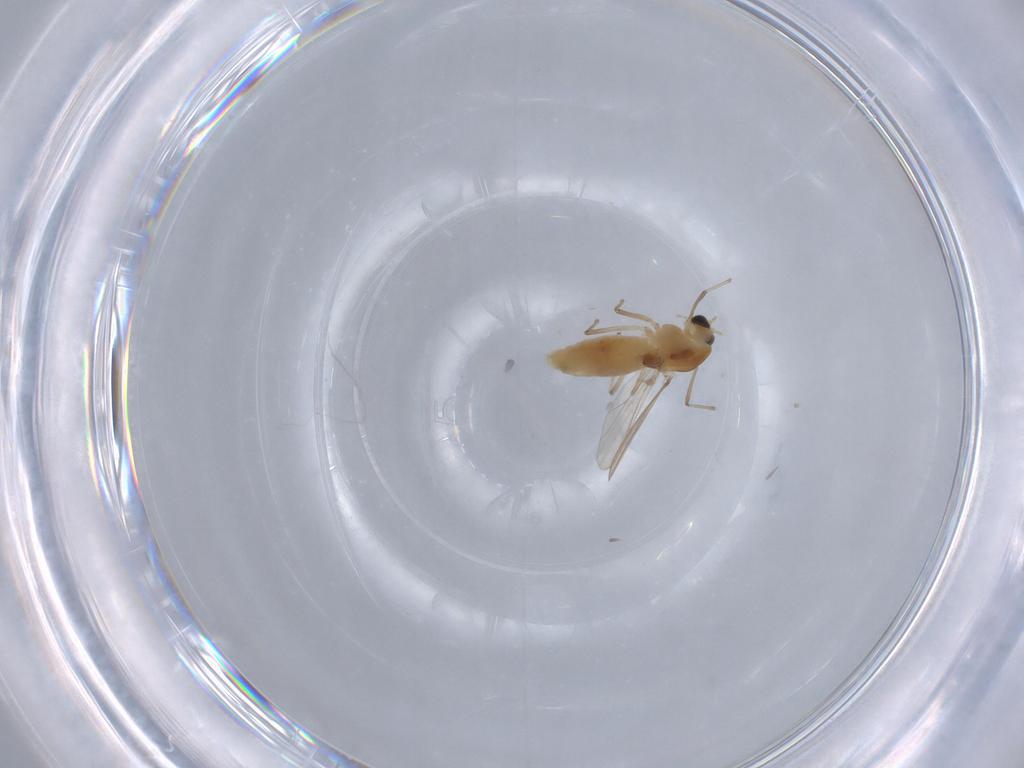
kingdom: Animalia
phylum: Arthropoda
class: Insecta
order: Diptera
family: Chironomidae
